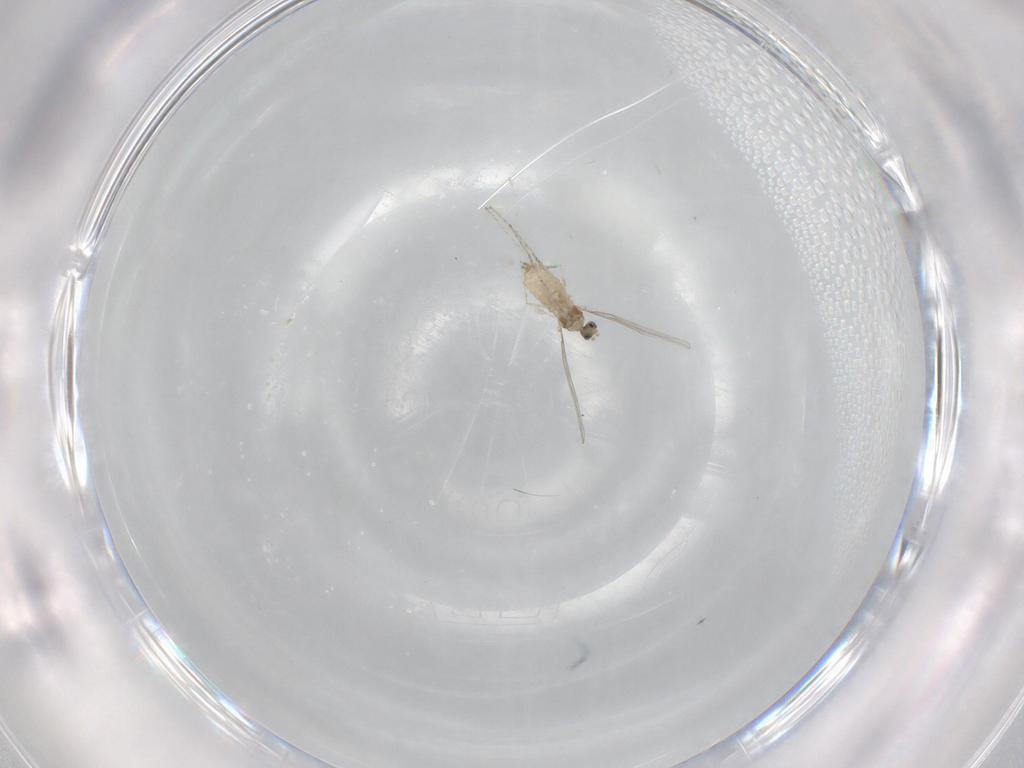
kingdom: Animalia
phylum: Arthropoda
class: Insecta
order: Diptera
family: Cecidomyiidae
